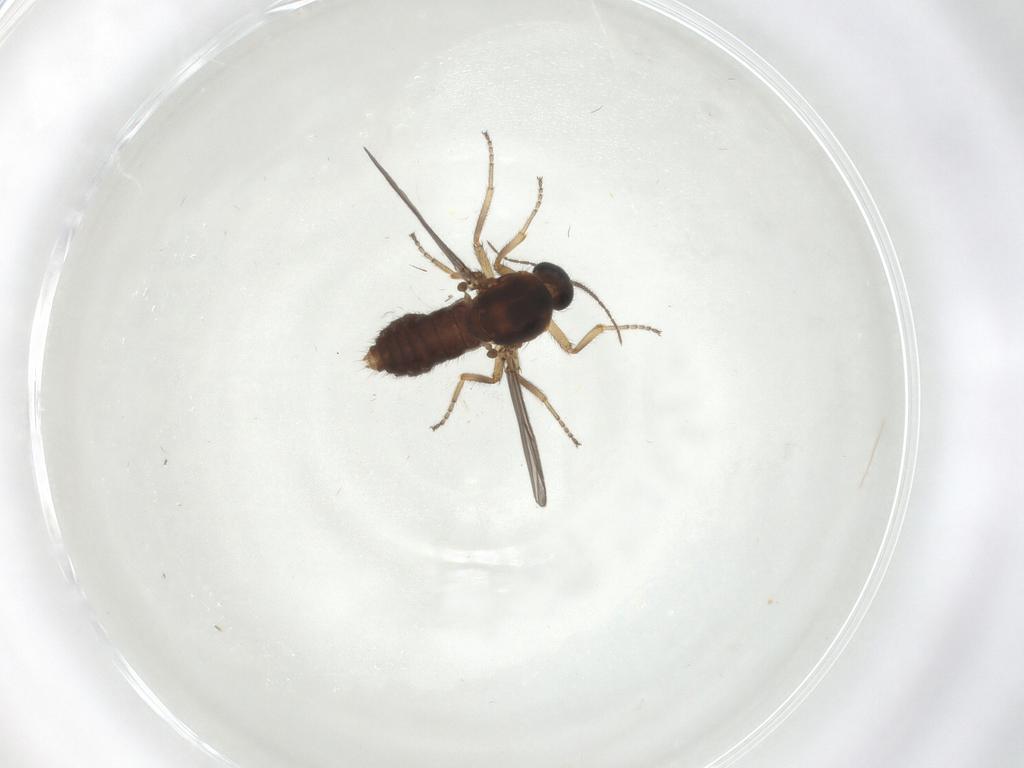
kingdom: Animalia
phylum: Arthropoda
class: Insecta
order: Diptera
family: Ceratopogonidae
